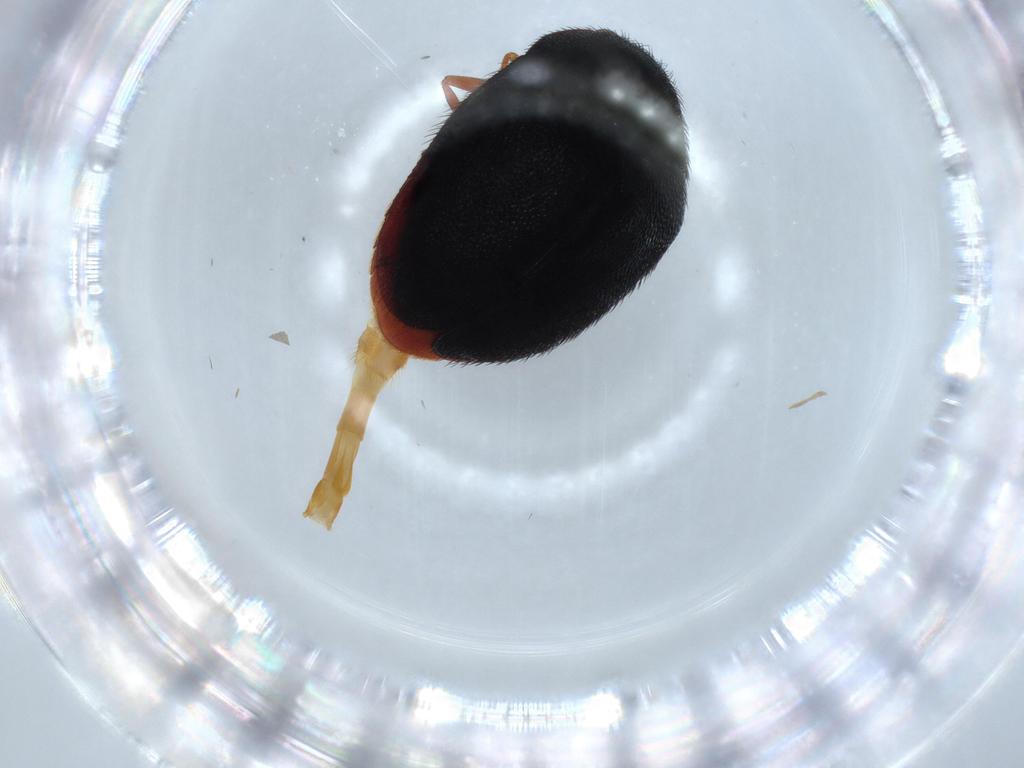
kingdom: Animalia
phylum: Arthropoda
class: Insecta
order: Coleoptera
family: Dermestidae
